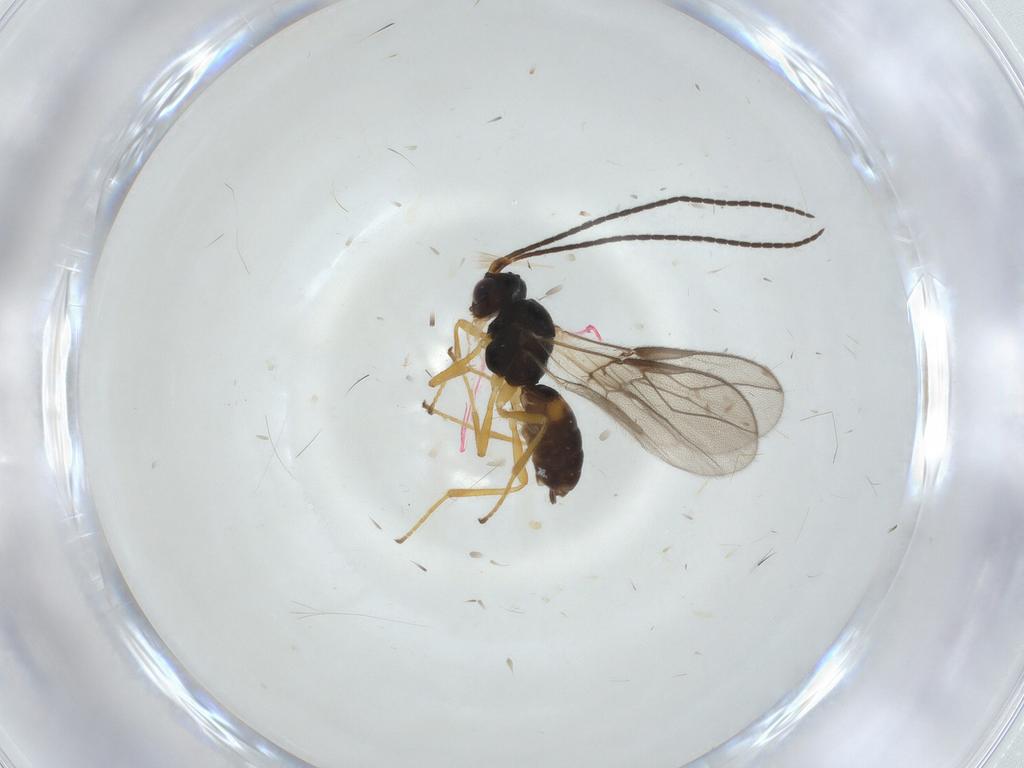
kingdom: Animalia
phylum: Arthropoda
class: Insecta
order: Hymenoptera
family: Braconidae
